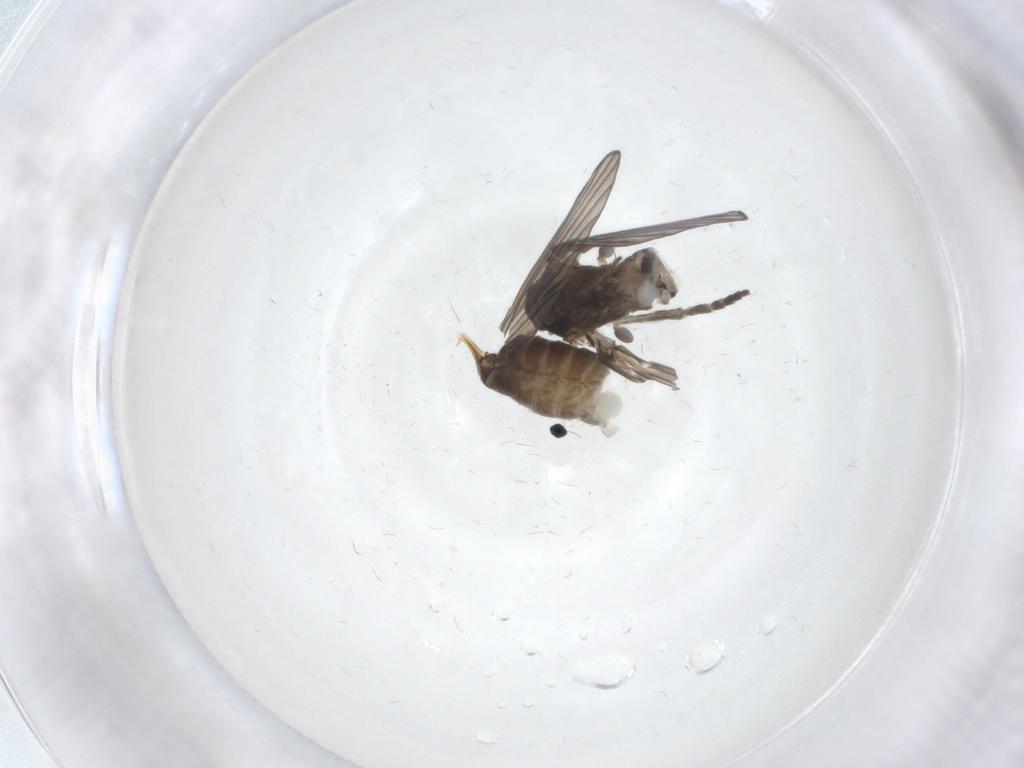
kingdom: Animalia
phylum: Arthropoda
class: Insecta
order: Diptera
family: Psychodidae
